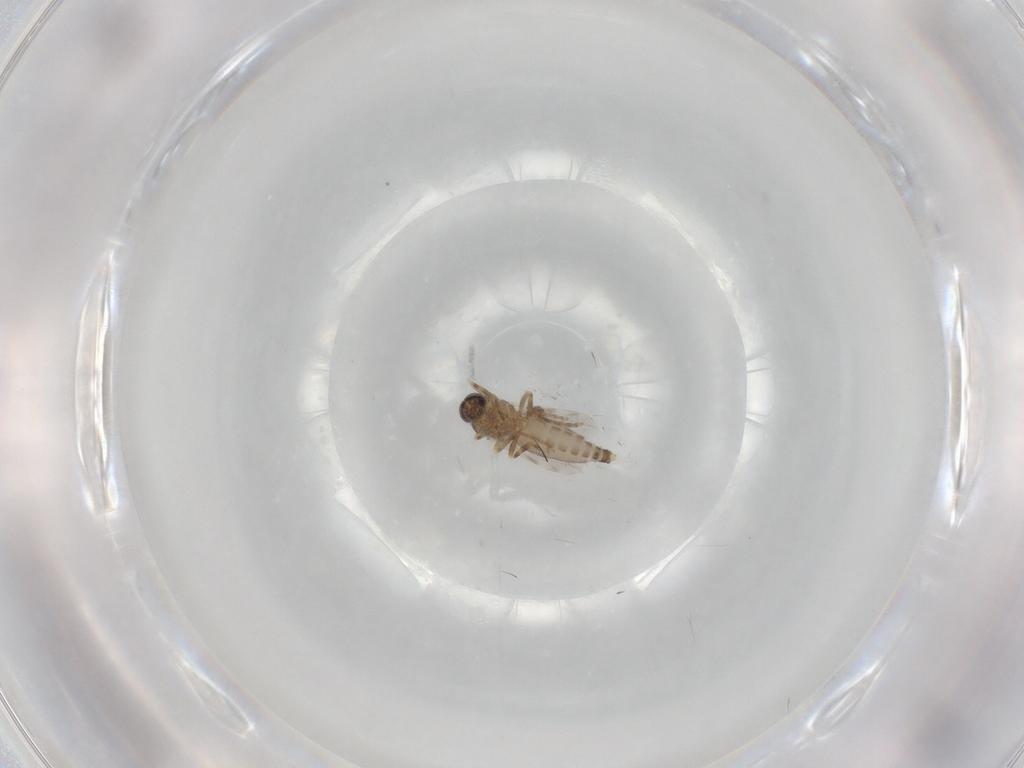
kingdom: Animalia
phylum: Arthropoda
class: Insecta
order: Diptera
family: Ceratopogonidae
